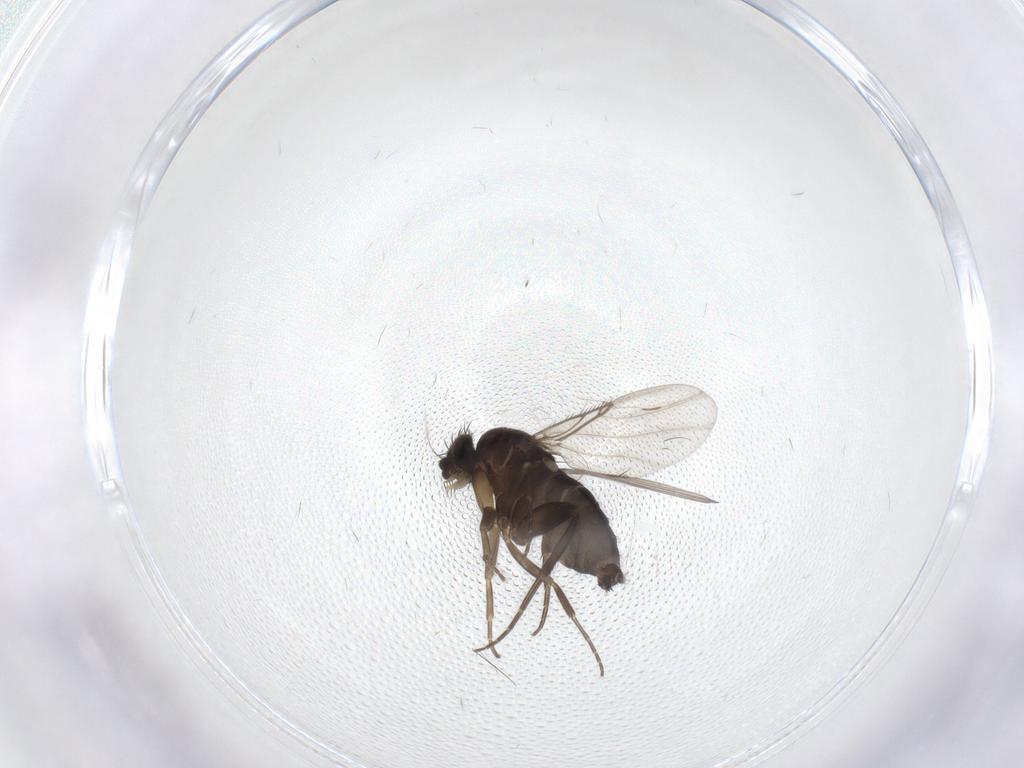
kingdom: Animalia
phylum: Arthropoda
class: Insecta
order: Diptera
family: Phoridae
